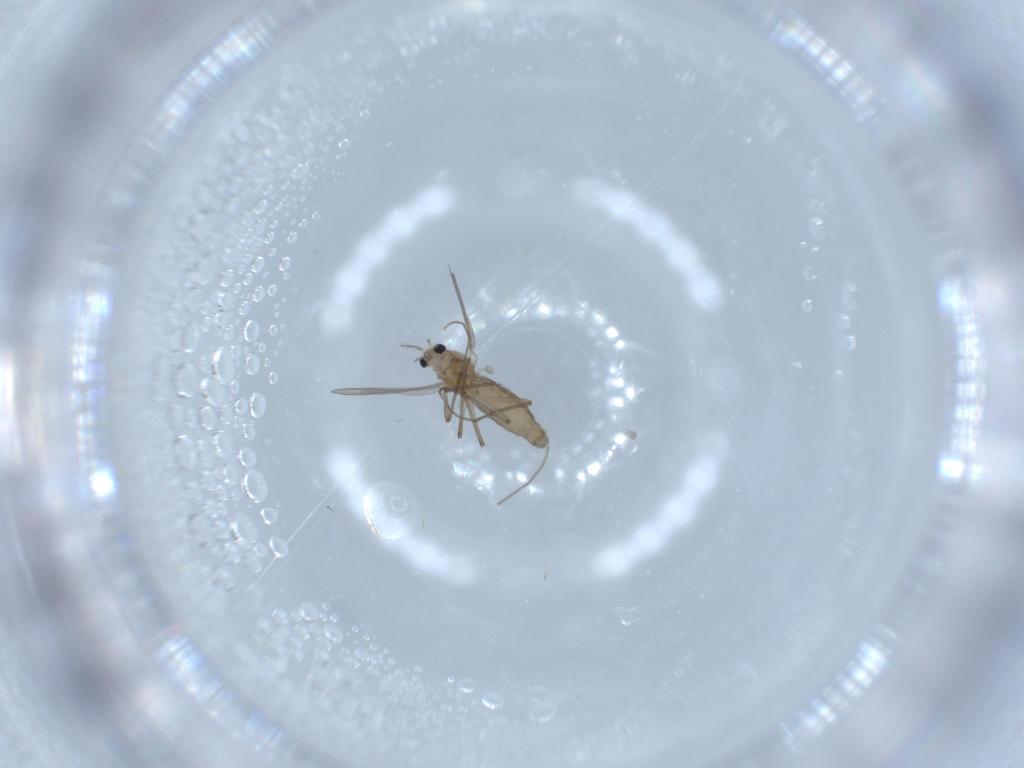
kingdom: Animalia
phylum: Arthropoda
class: Insecta
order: Diptera
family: Chironomidae
